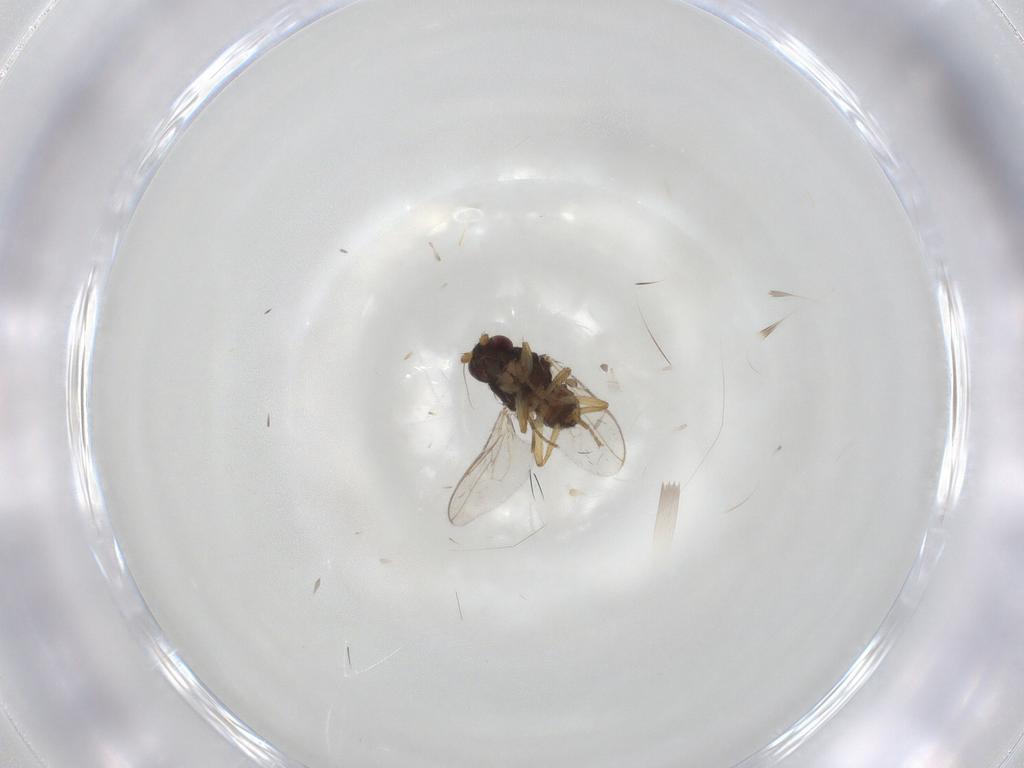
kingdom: Animalia
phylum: Arthropoda
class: Insecta
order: Diptera
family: Sphaeroceridae
